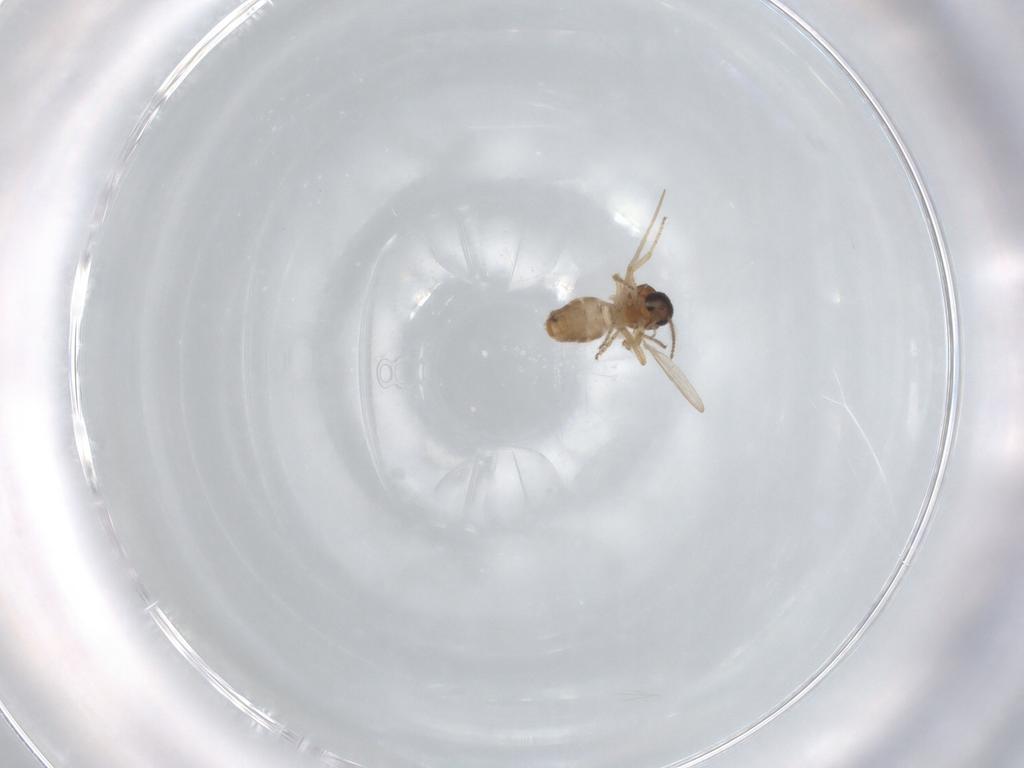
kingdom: Animalia
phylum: Arthropoda
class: Insecta
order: Diptera
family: Ceratopogonidae
